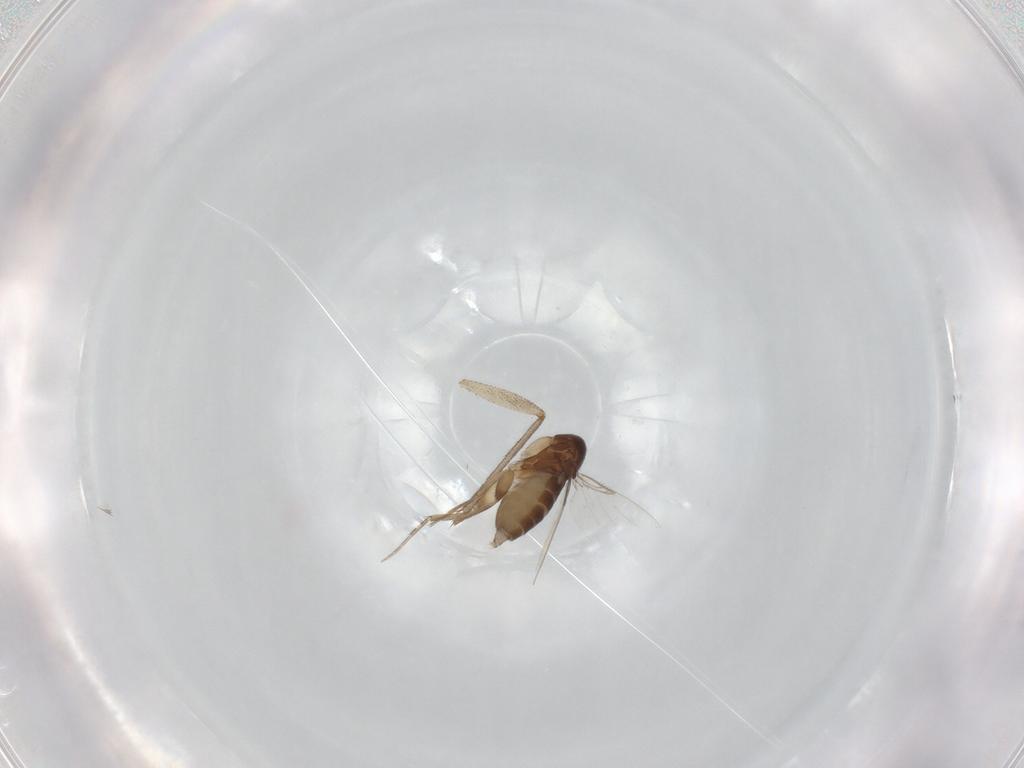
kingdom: Animalia
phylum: Arthropoda
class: Insecta
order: Diptera
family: Phoridae
